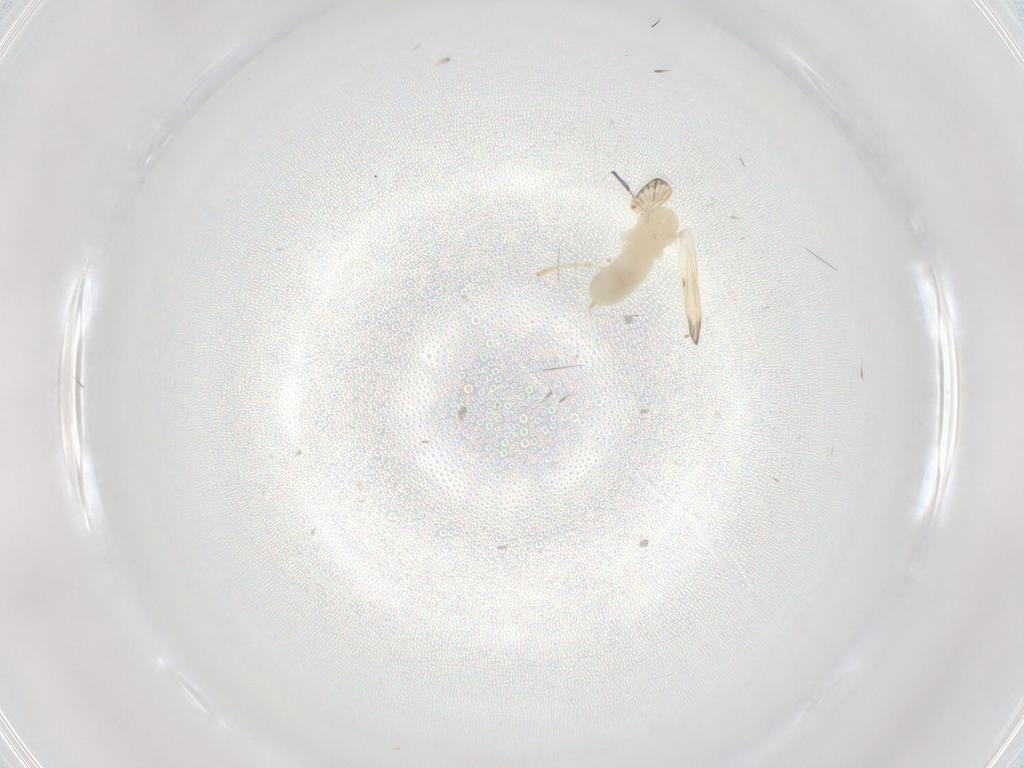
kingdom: Animalia
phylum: Arthropoda
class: Insecta
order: Diptera
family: Psychodidae
